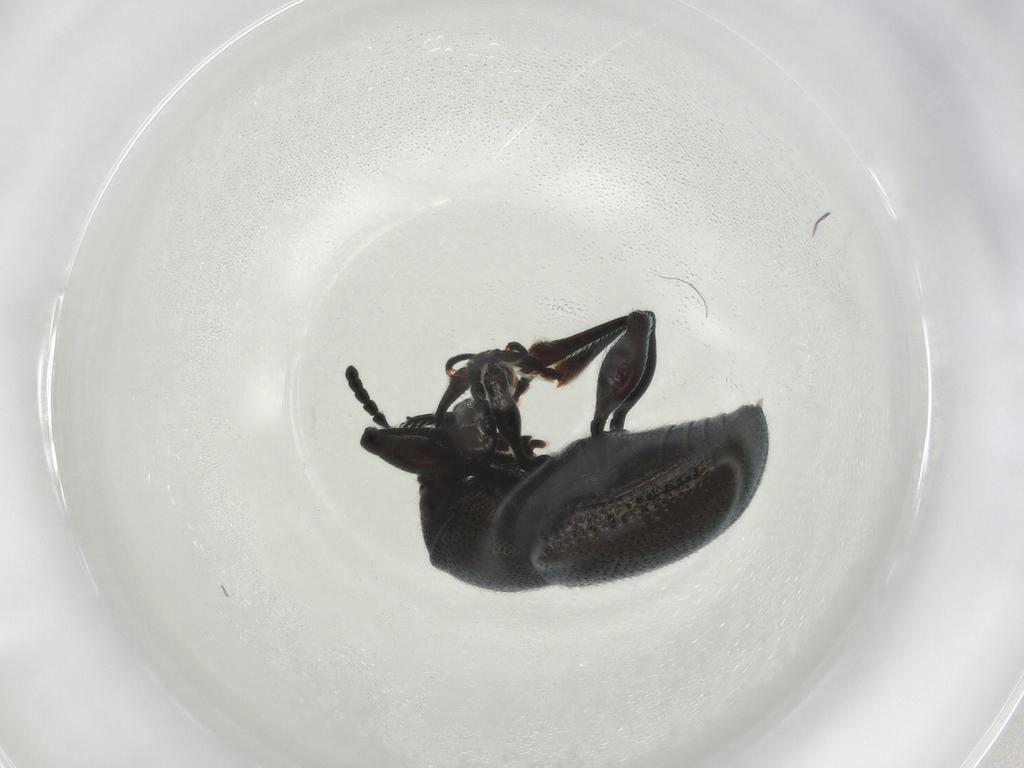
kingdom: Animalia
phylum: Arthropoda
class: Insecta
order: Coleoptera
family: Chrysomelidae
